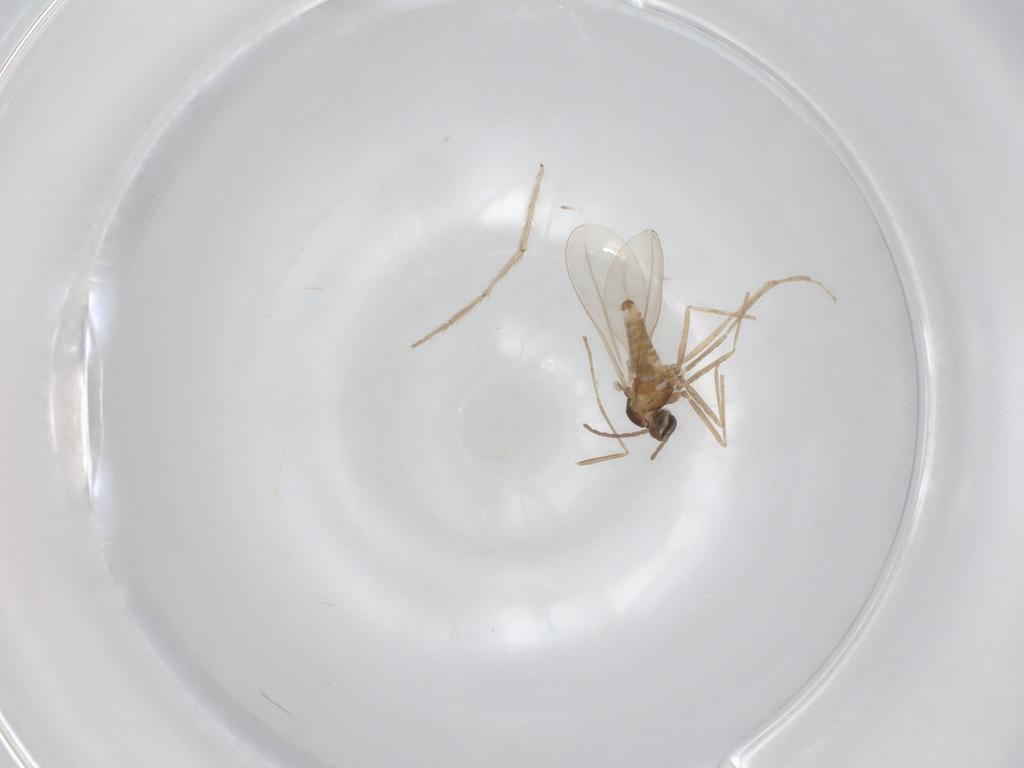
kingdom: Animalia
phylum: Arthropoda
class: Insecta
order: Diptera
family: Cecidomyiidae
